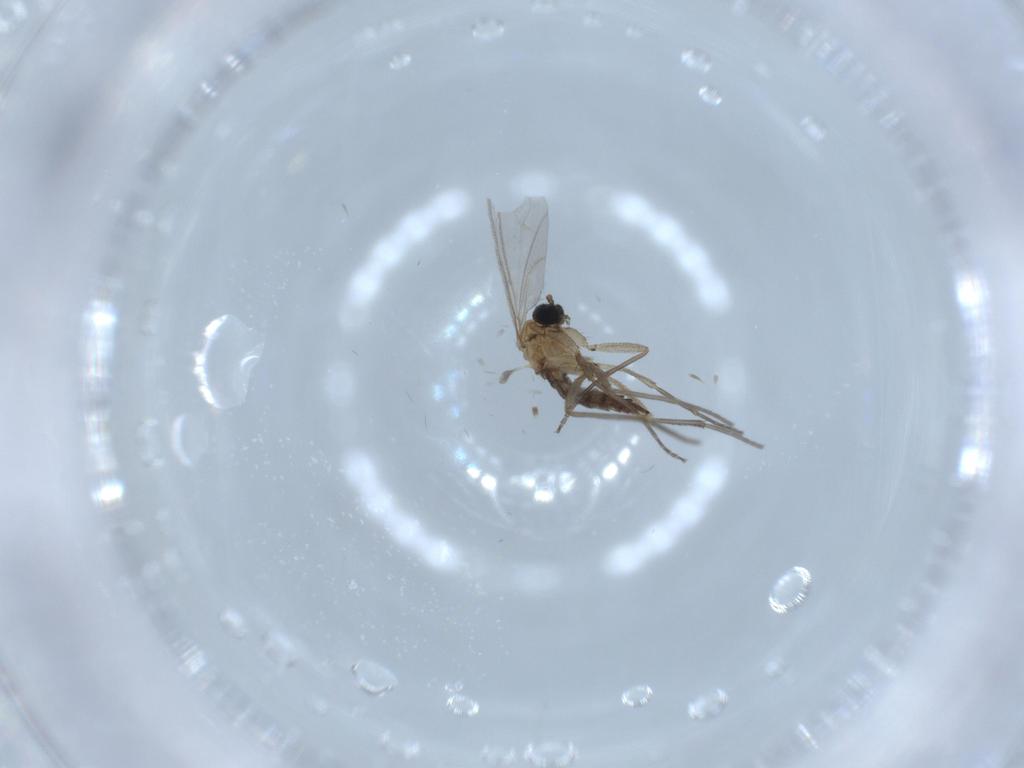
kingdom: Animalia
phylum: Arthropoda
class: Insecta
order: Diptera
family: Sciaridae
